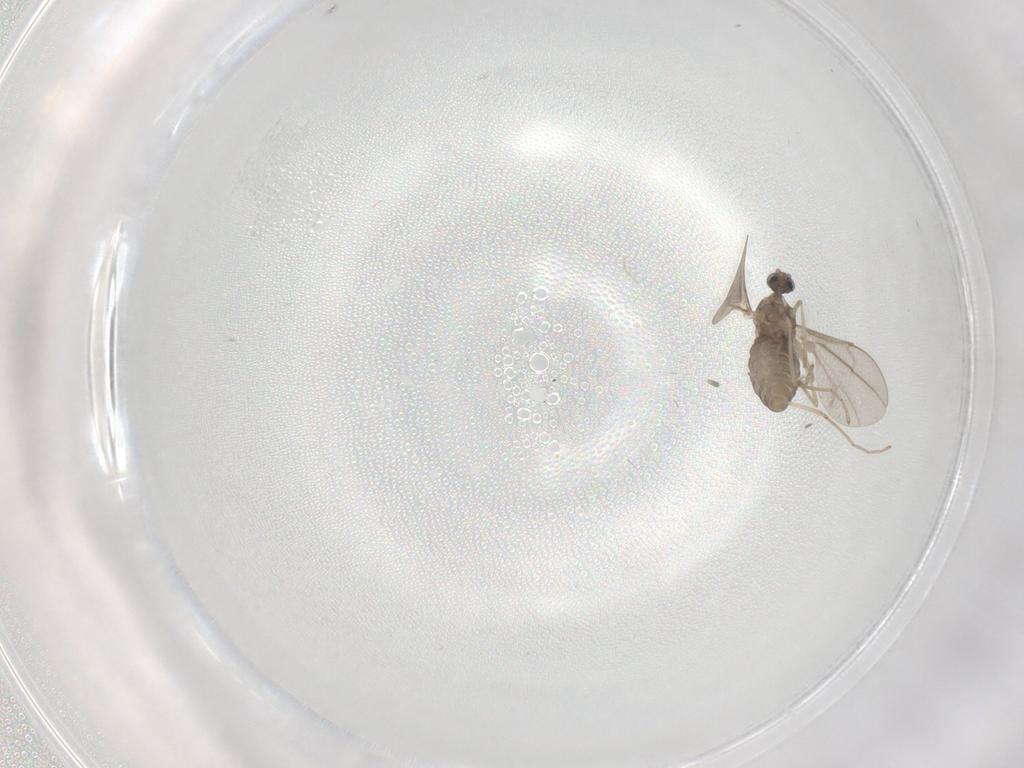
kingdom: Animalia
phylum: Arthropoda
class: Insecta
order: Diptera
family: Phoridae
